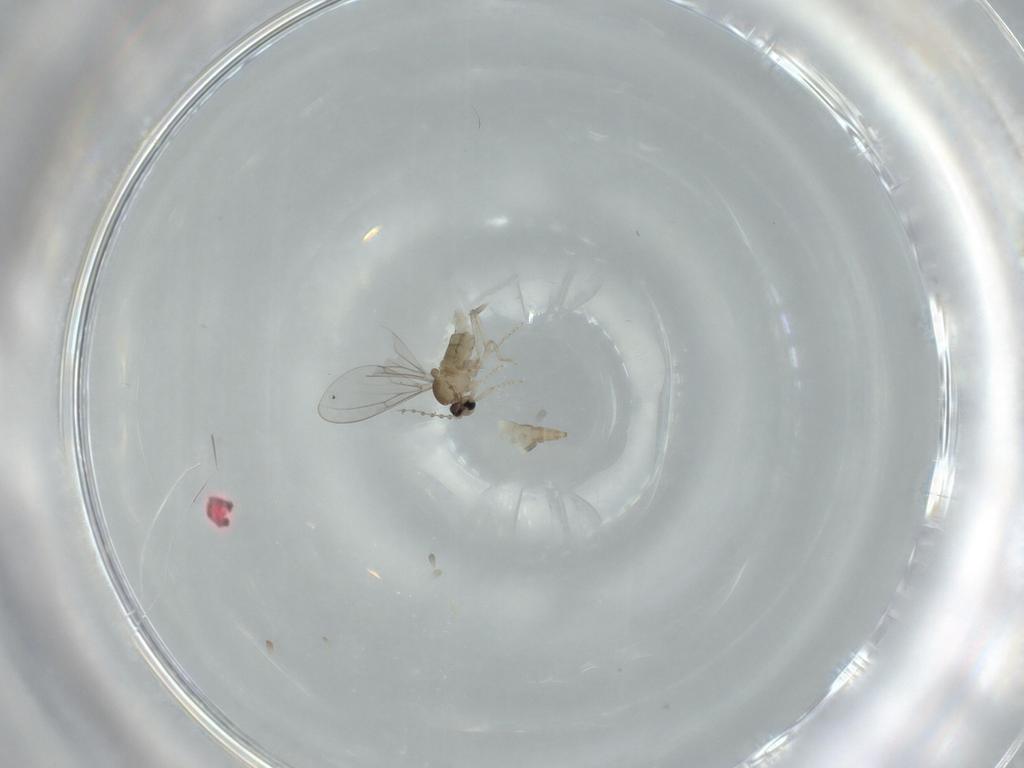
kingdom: Animalia
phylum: Arthropoda
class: Insecta
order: Diptera
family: Cecidomyiidae
